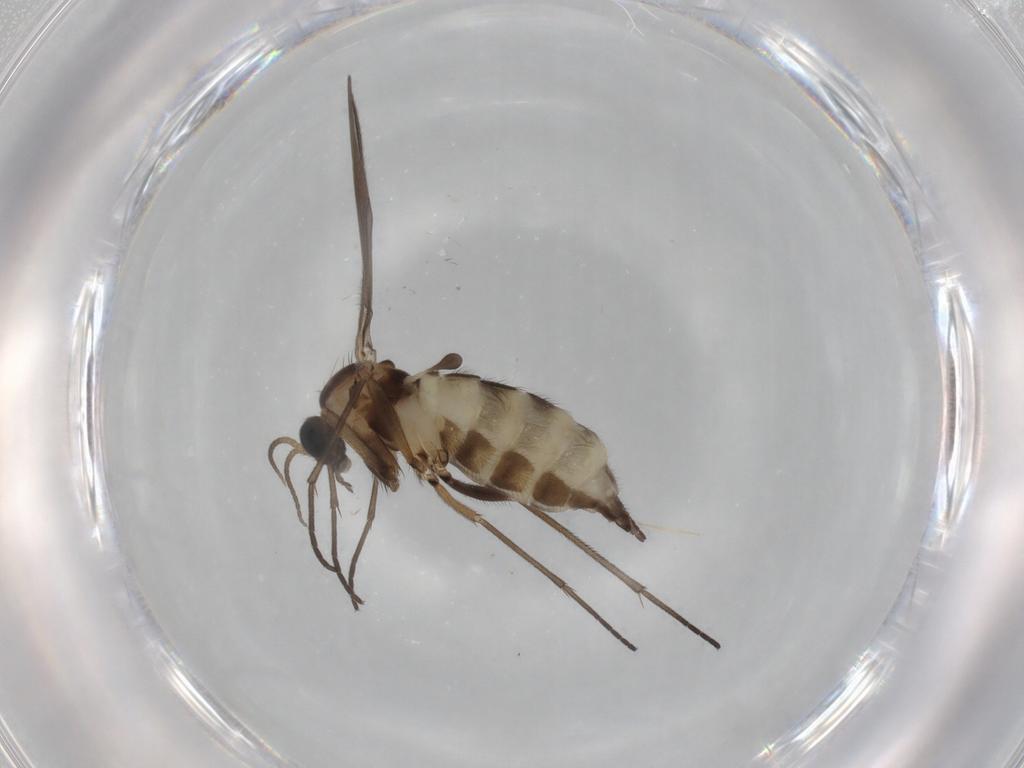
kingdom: Animalia
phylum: Arthropoda
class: Insecta
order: Diptera
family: Sciaridae
